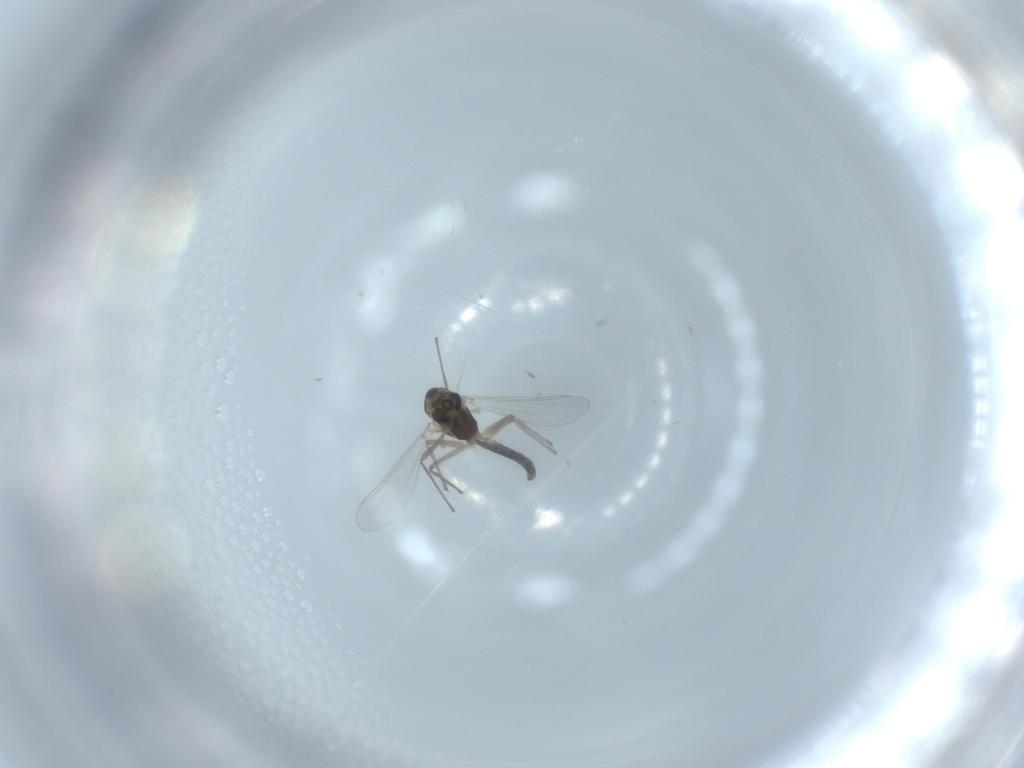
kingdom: Animalia
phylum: Arthropoda
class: Insecta
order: Diptera
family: Chironomidae
